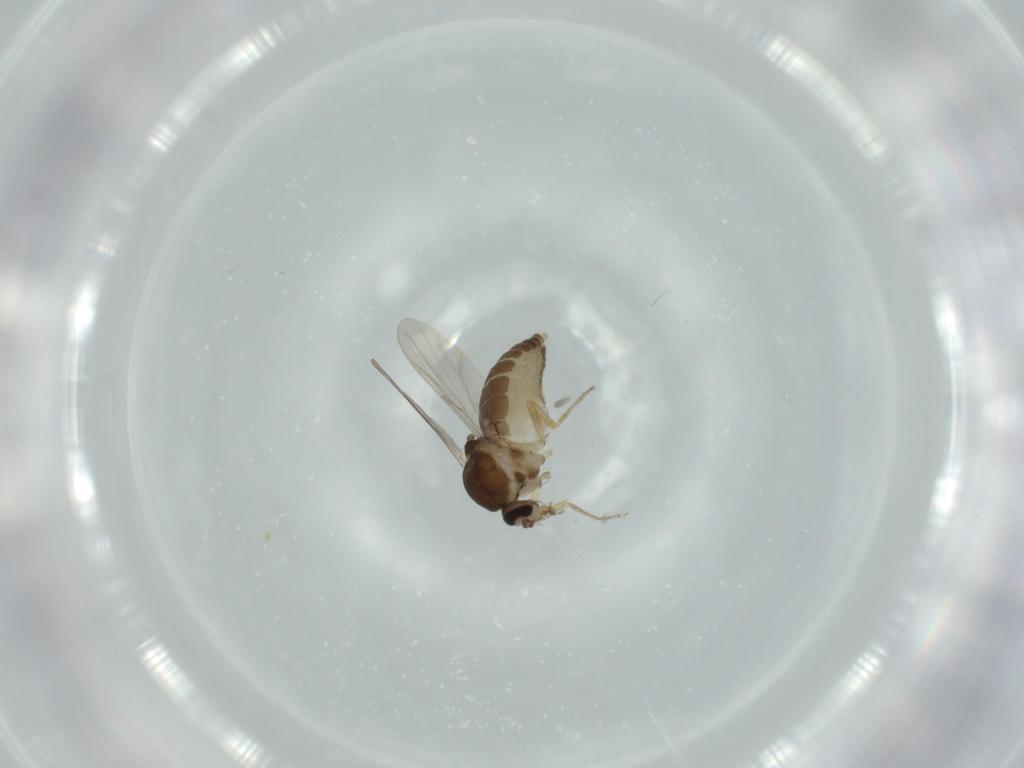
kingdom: Animalia
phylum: Arthropoda
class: Insecta
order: Diptera
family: Ceratopogonidae
